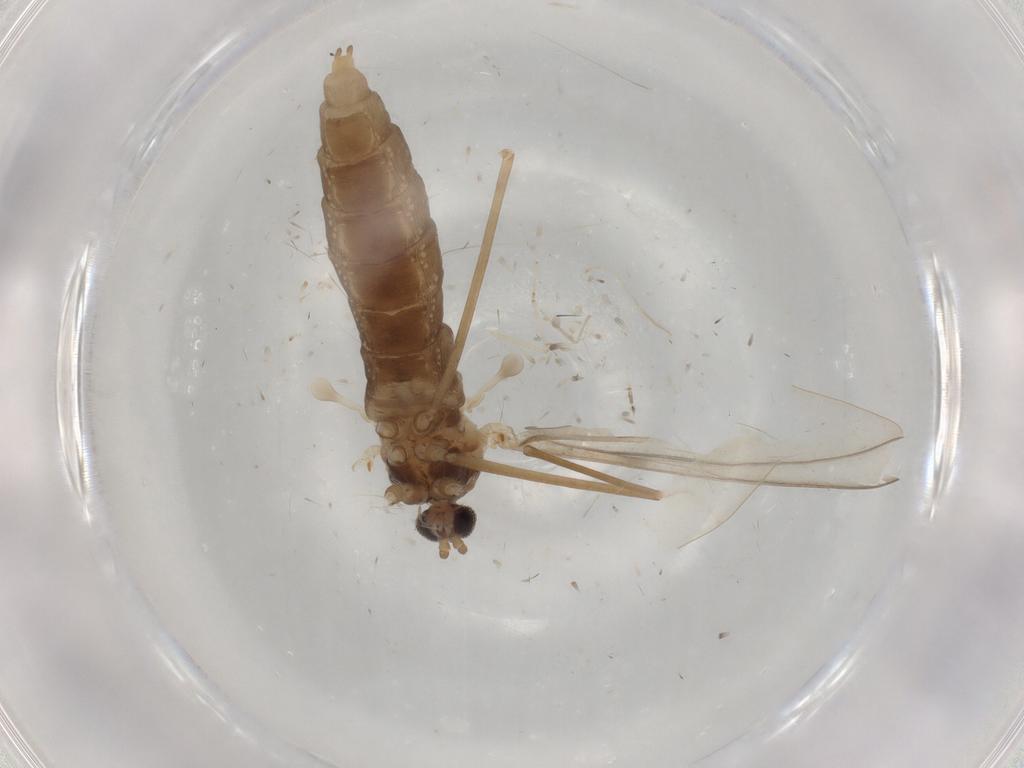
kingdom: Animalia
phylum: Arthropoda
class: Insecta
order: Diptera
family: Cecidomyiidae
